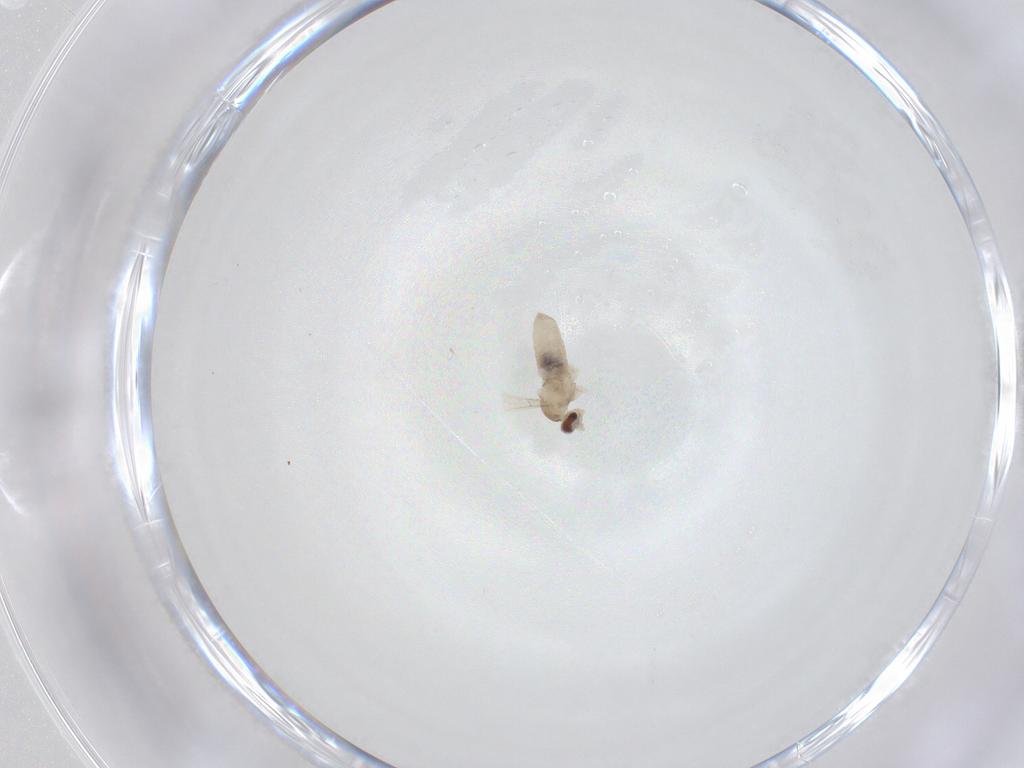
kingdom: Animalia
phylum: Arthropoda
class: Insecta
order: Diptera
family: Cecidomyiidae
